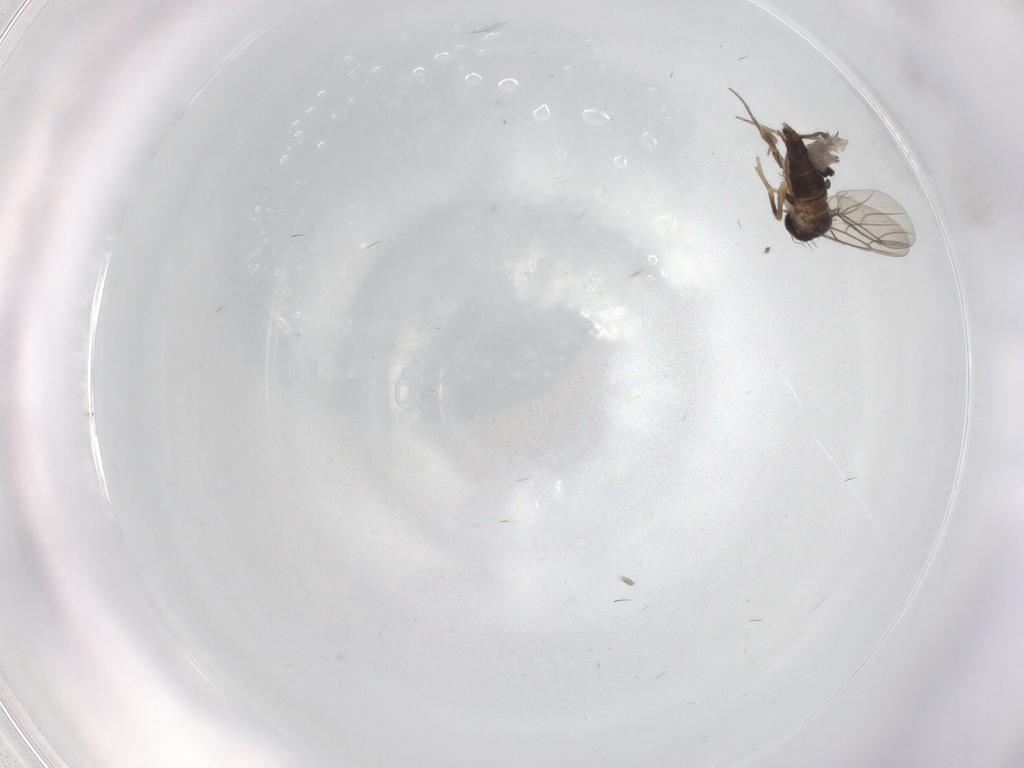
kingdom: Animalia
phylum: Arthropoda
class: Insecta
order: Diptera
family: Chironomidae
